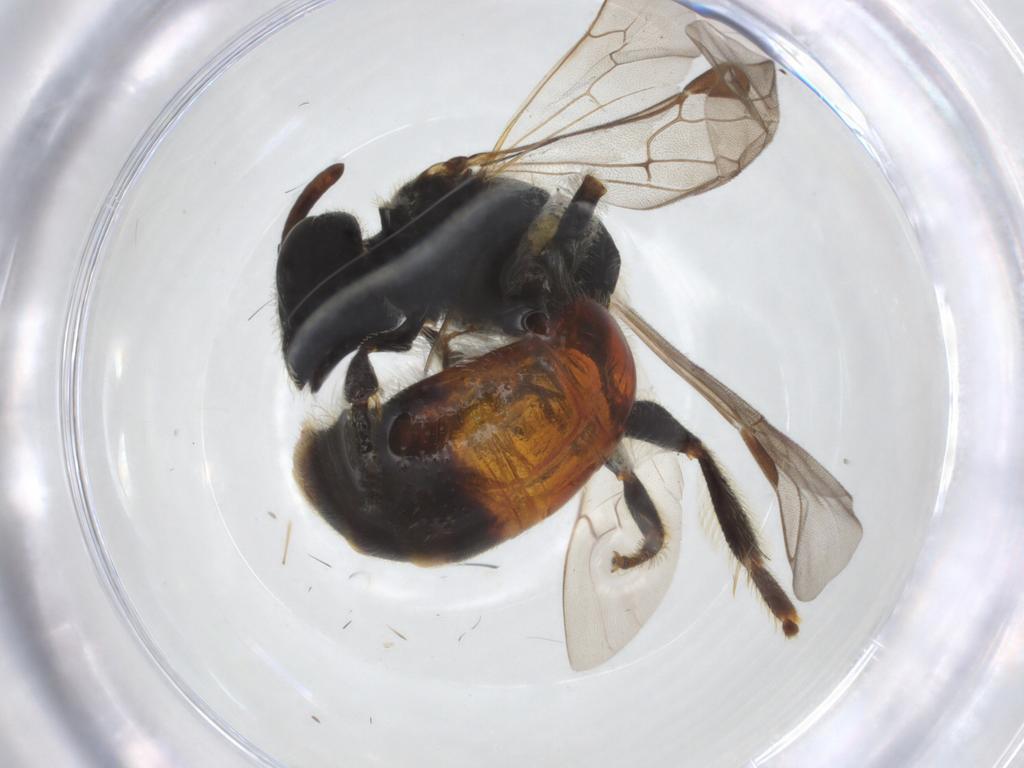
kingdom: Animalia
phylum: Arthropoda
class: Insecta
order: Hymenoptera
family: Halictidae
